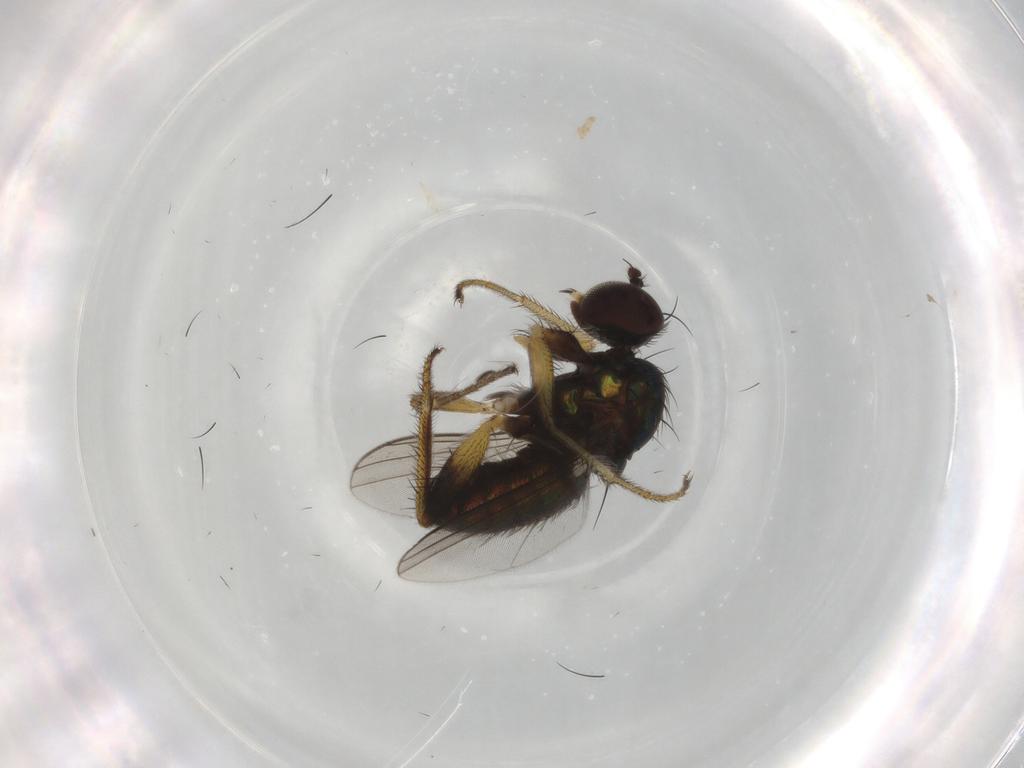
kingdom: Animalia
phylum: Arthropoda
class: Insecta
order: Diptera
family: Dolichopodidae
